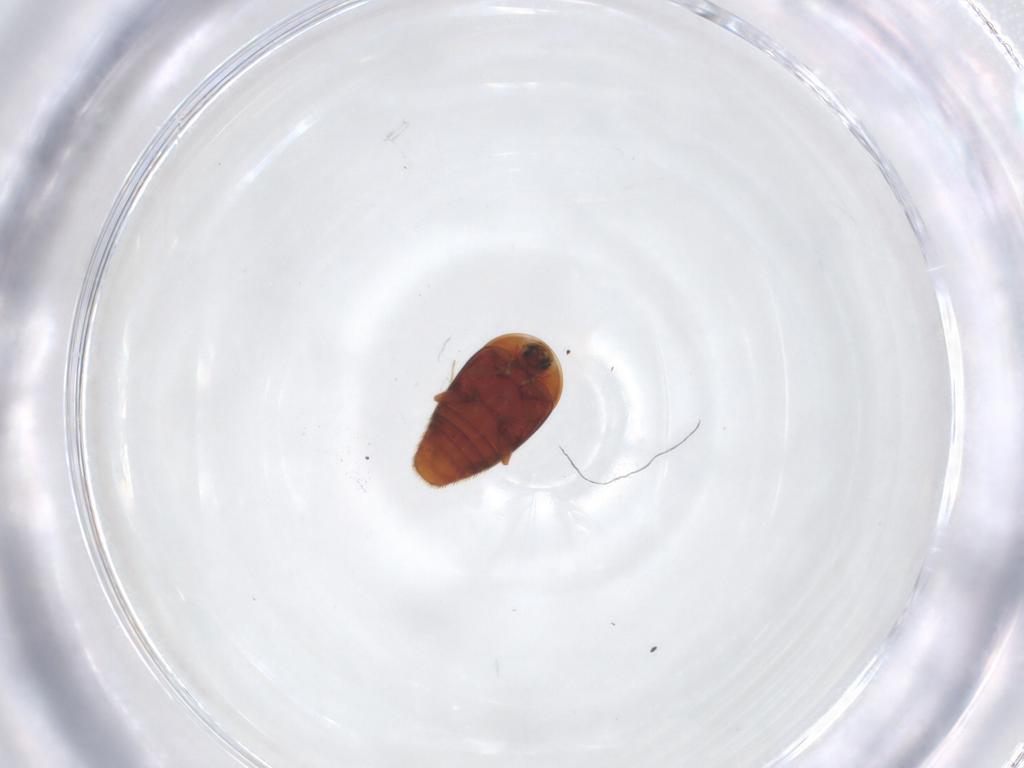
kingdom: Animalia
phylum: Arthropoda
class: Insecta
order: Coleoptera
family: Corylophidae
